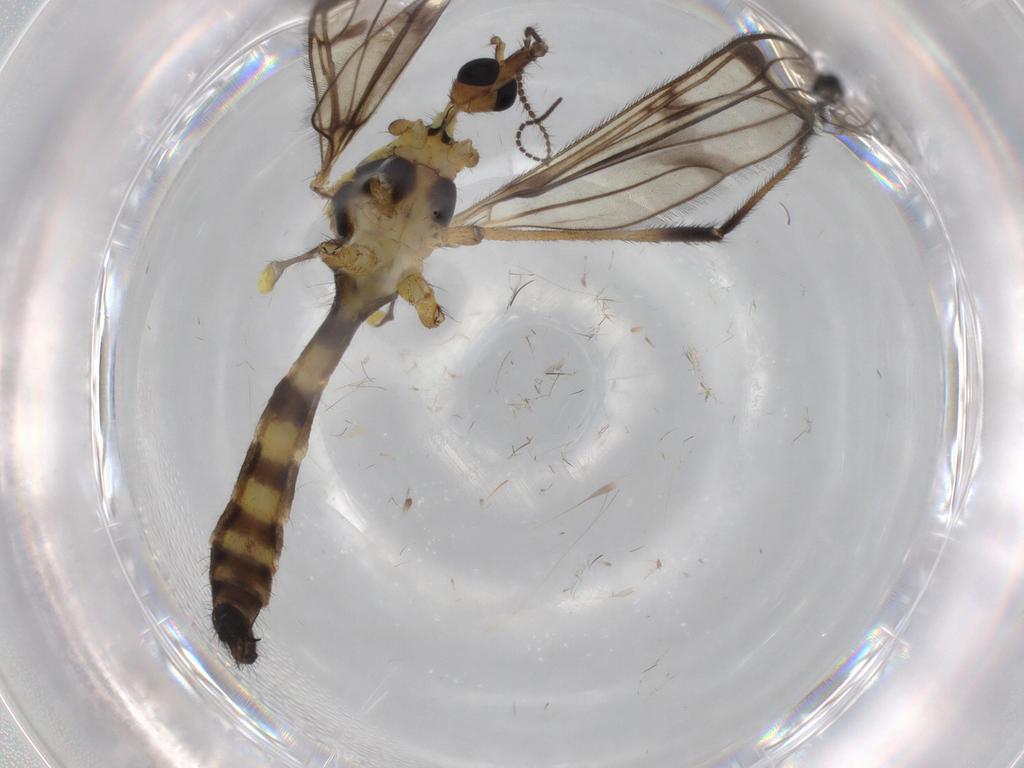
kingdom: Animalia
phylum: Arthropoda
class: Insecta
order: Diptera
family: Limoniidae
